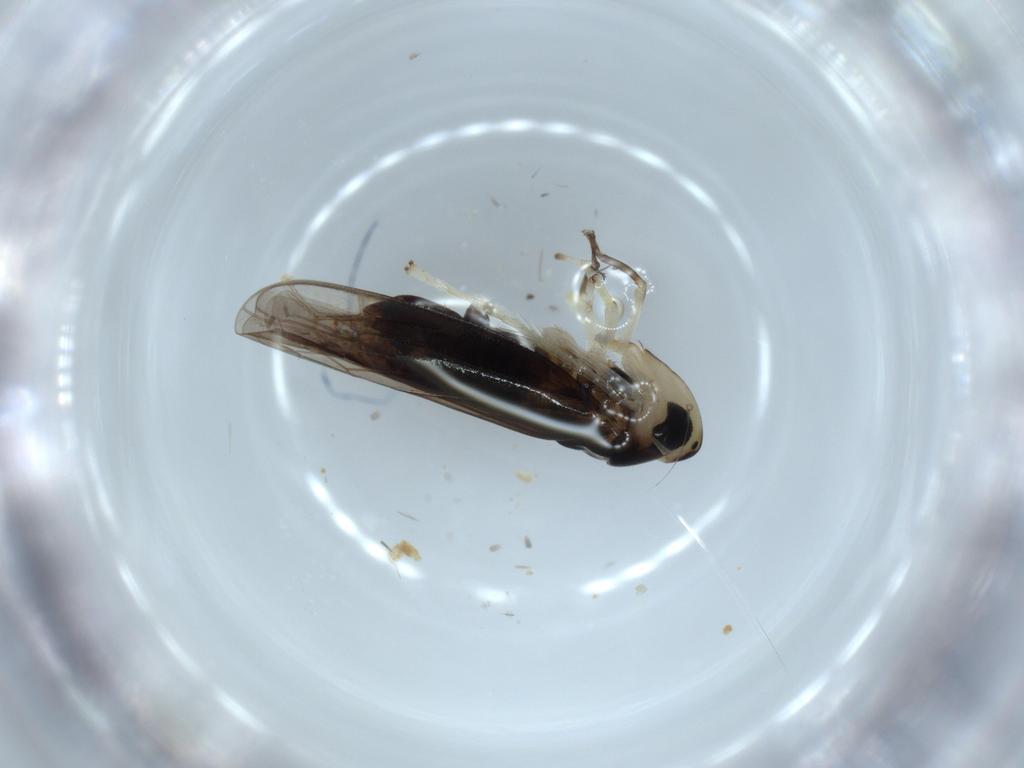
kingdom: Animalia
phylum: Arthropoda
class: Insecta
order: Hemiptera
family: Cicadellidae
